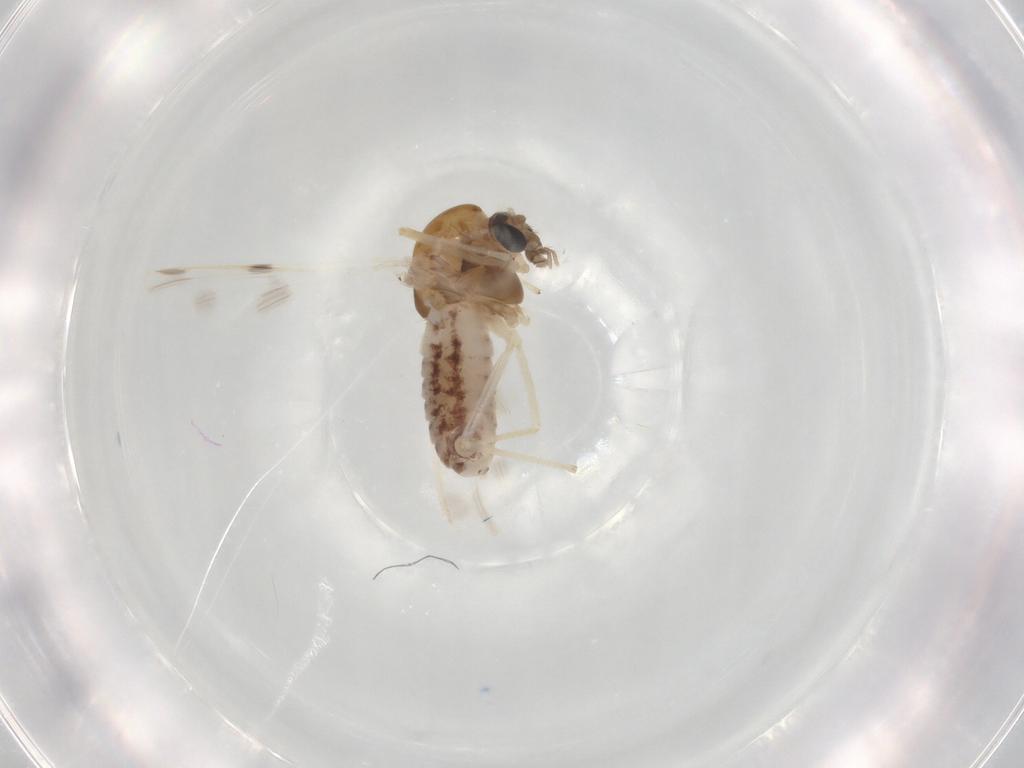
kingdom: Animalia
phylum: Arthropoda
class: Insecta
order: Diptera
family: Chironomidae
